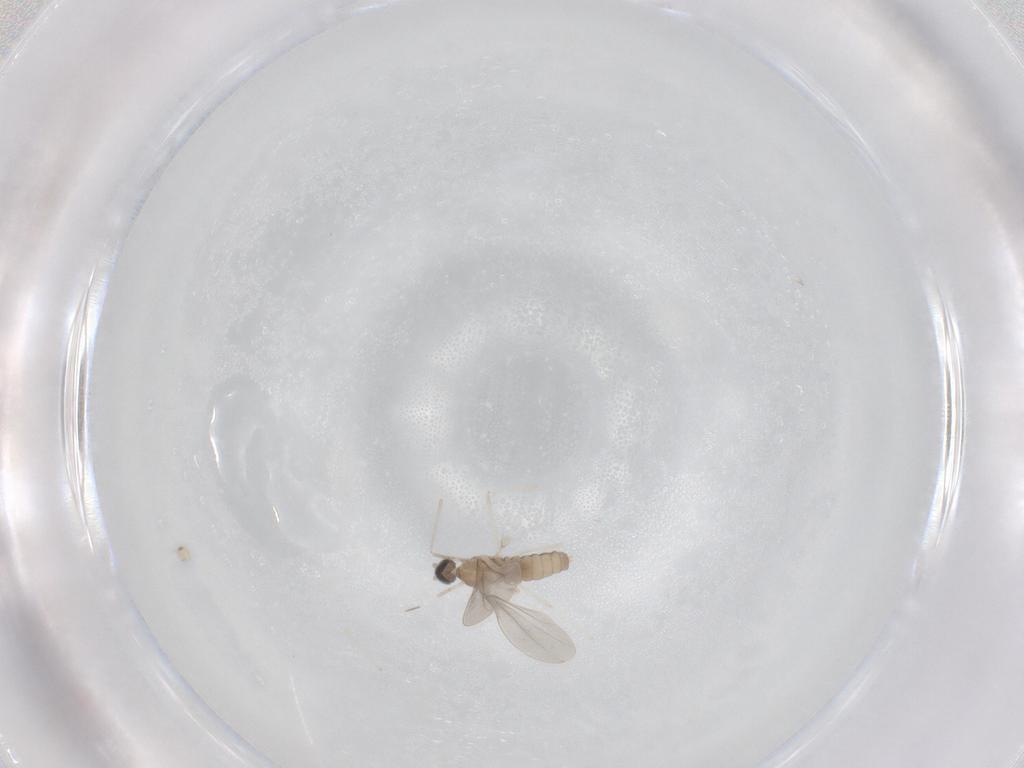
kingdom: Animalia
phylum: Arthropoda
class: Insecta
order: Diptera
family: Cecidomyiidae
